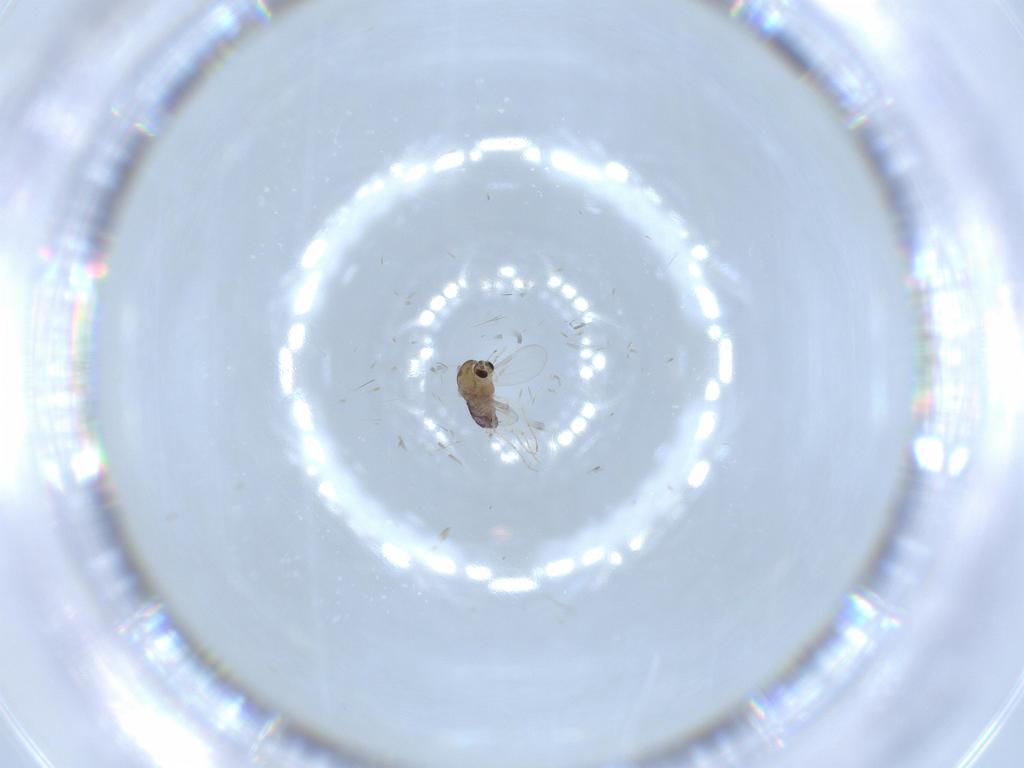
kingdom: Animalia
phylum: Arthropoda
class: Insecta
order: Diptera
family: Chironomidae
